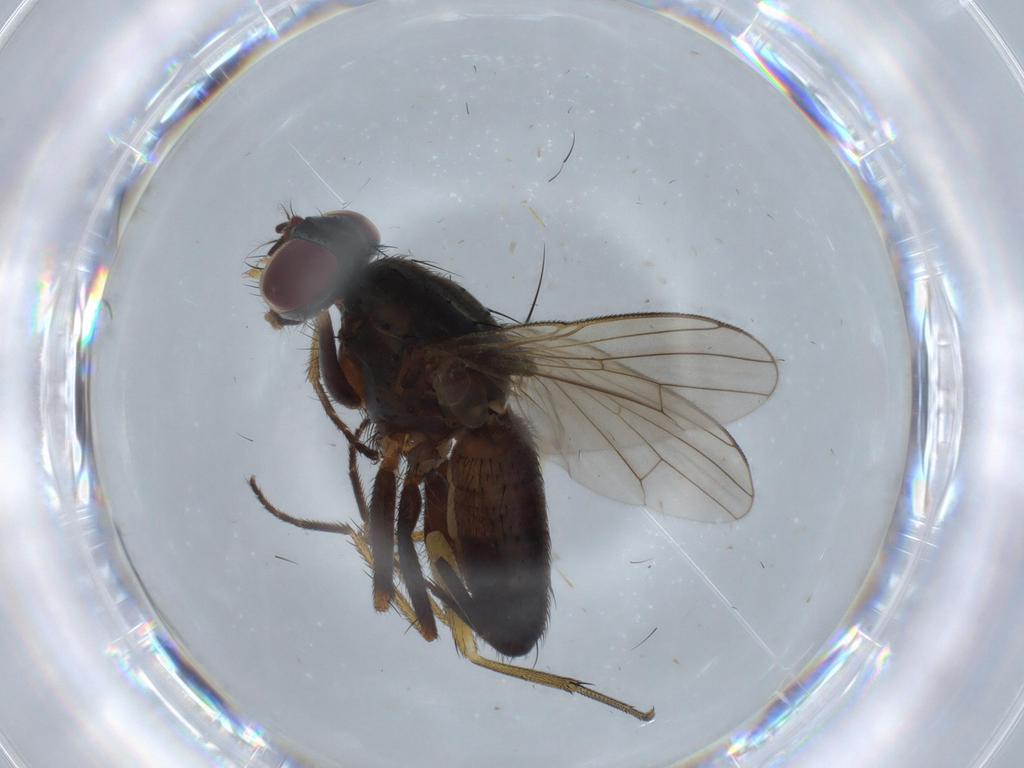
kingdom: Animalia
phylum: Arthropoda
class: Insecta
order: Diptera
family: Muscidae
